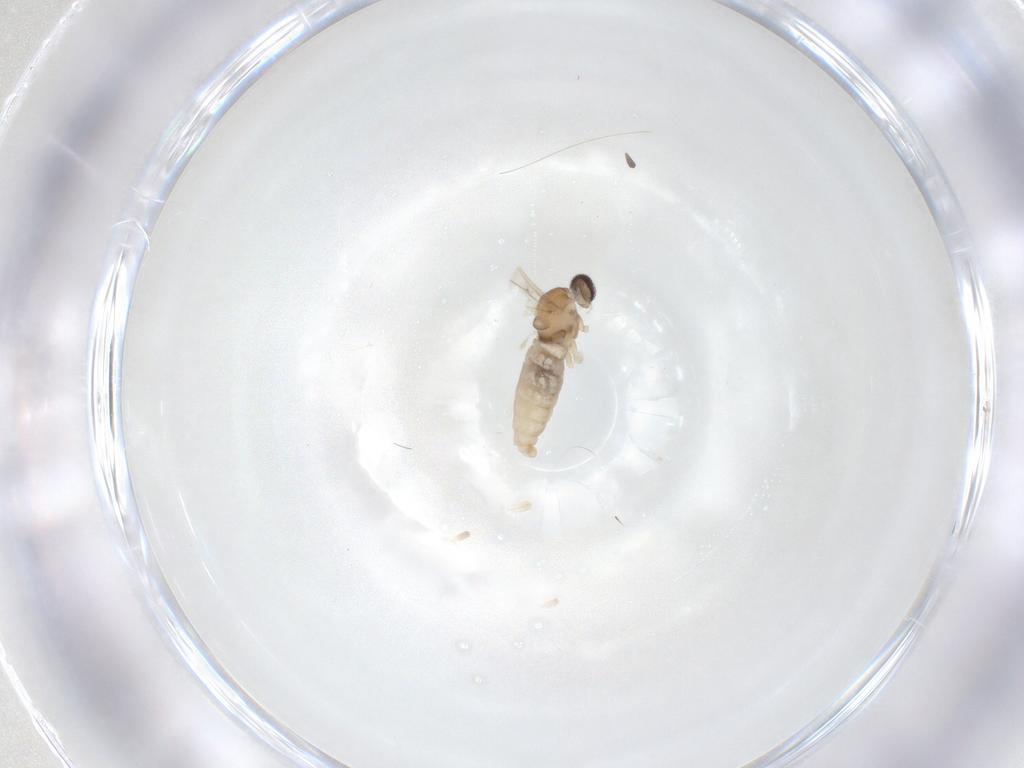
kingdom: Animalia
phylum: Arthropoda
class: Insecta
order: Diptera
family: Cecidomyiidae
